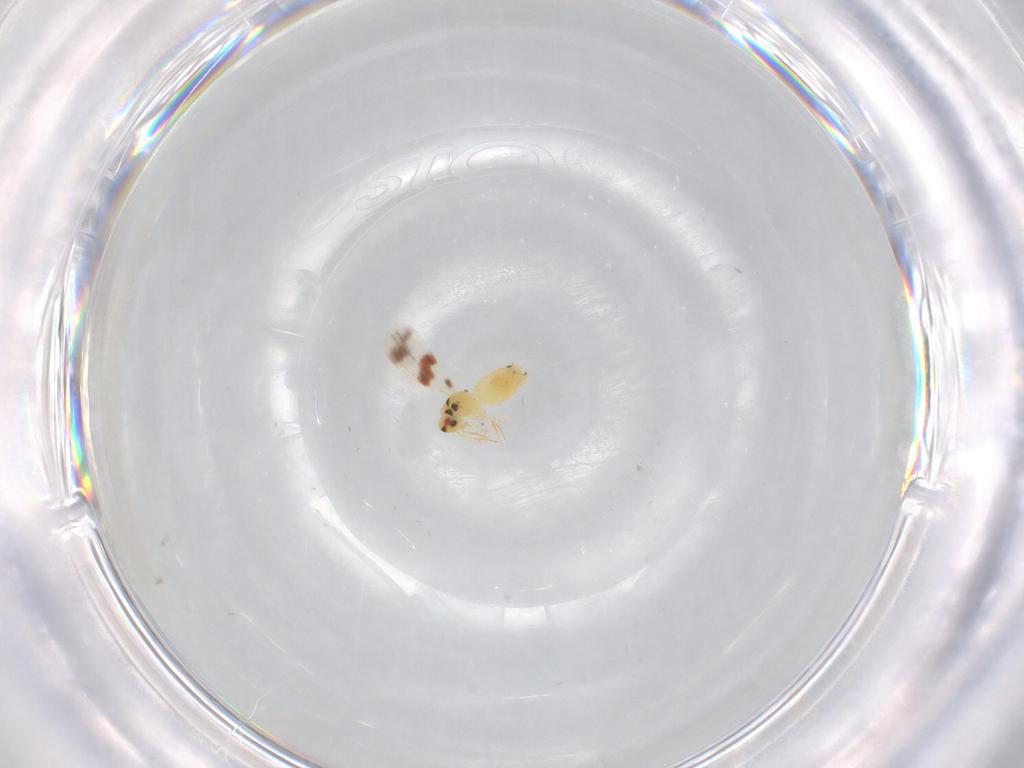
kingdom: Animalia
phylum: Arthropoda
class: Insecta
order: Hemiptera
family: Aleyrodidae
